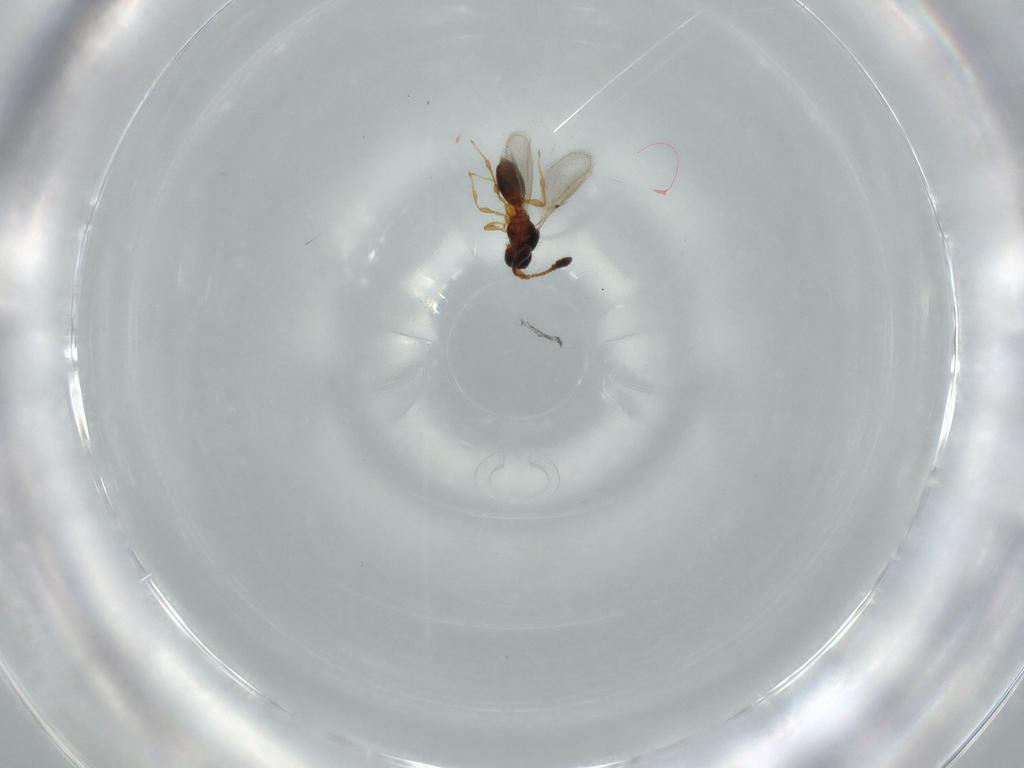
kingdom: Animalia
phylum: Arthropoda
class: Insecta
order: Hymenoptera
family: Diapriidae
